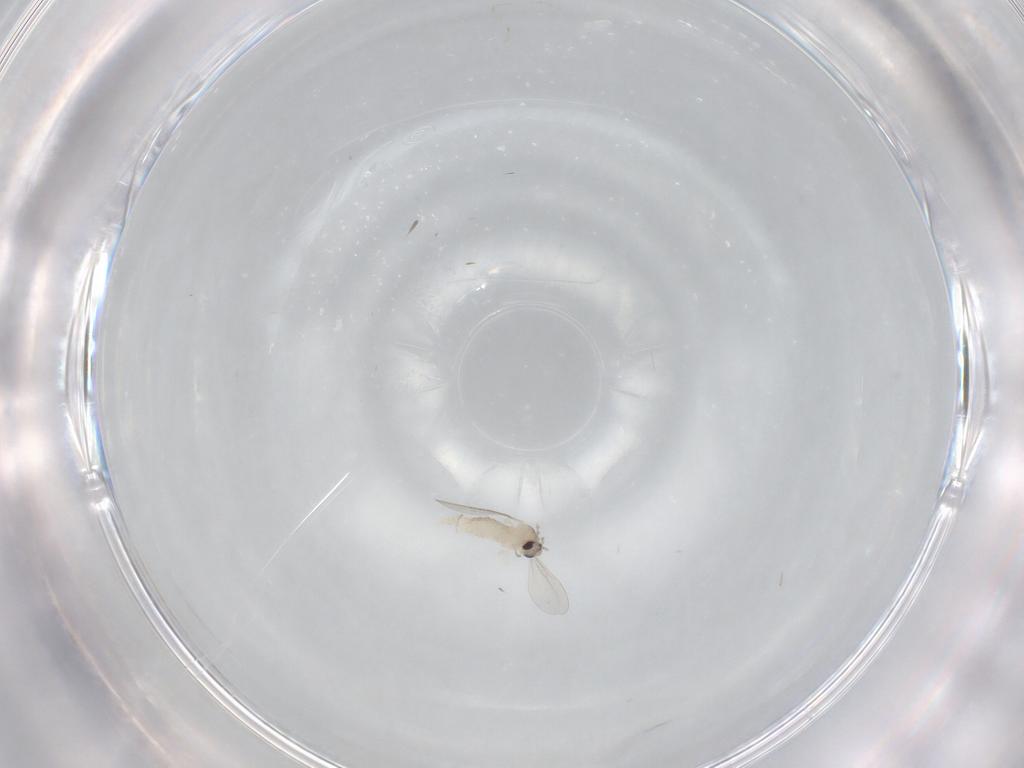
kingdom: Animalia
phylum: Arthropoda
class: Insecta
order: Diptera
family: Cecidomyiidae
